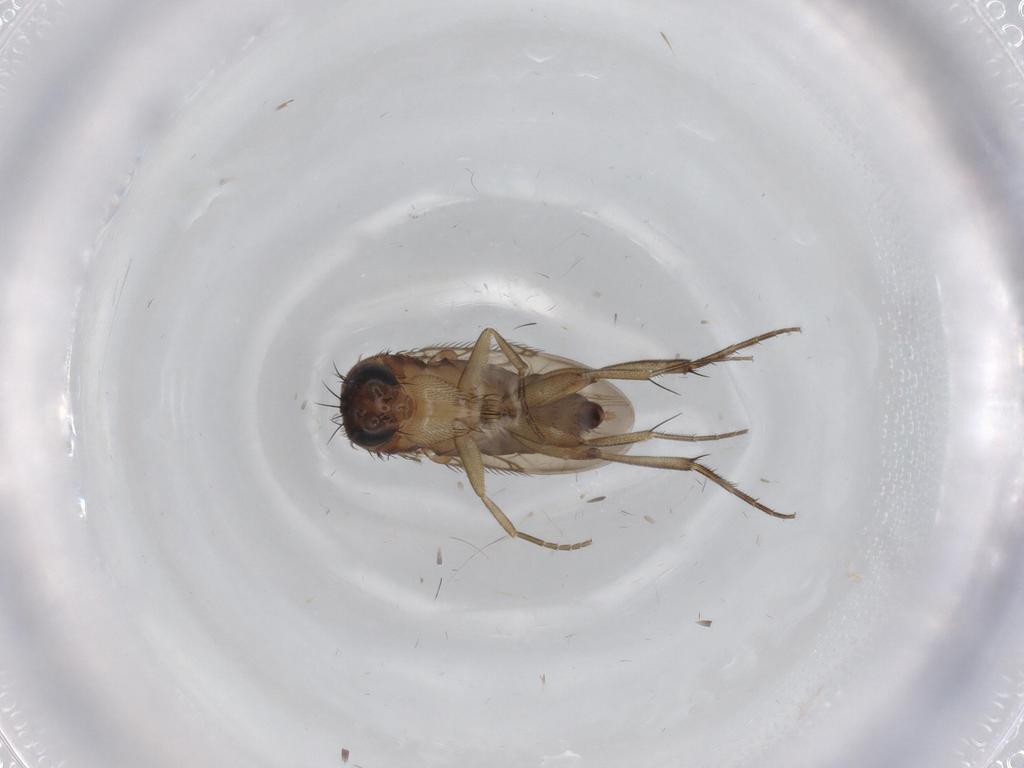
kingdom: Animalia
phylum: Arthropoda
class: Insecta
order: Diptera
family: Phoridae
